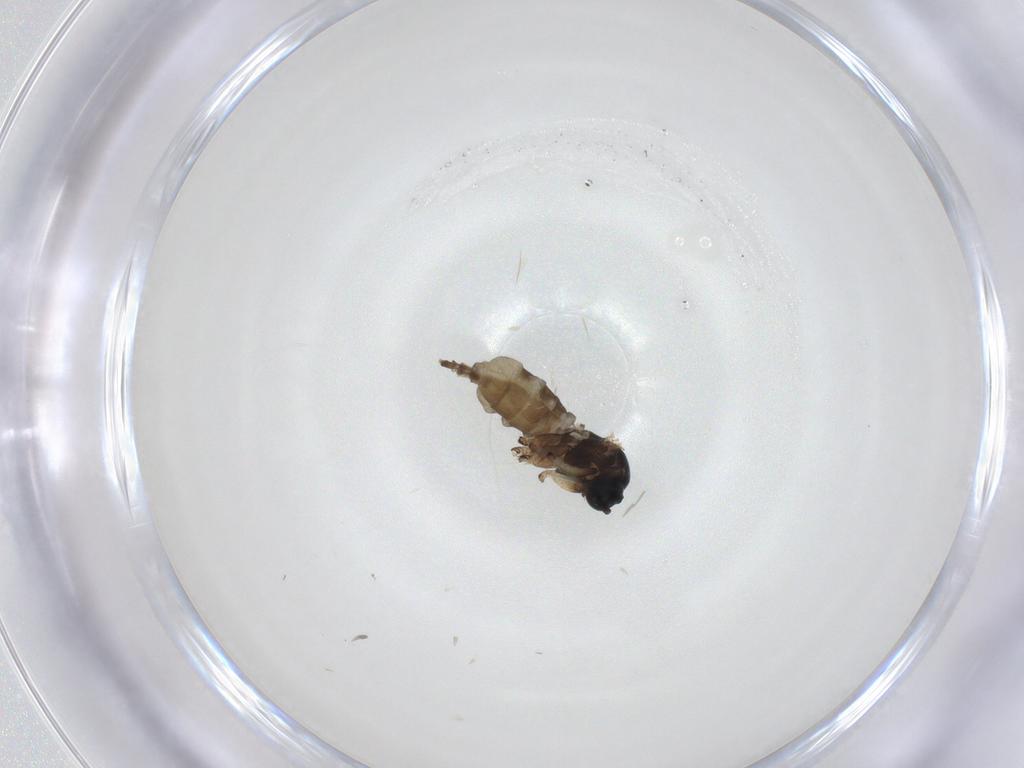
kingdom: Animalia
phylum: Arthropoda
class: Insecta
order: Diptera
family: Sciaridae
